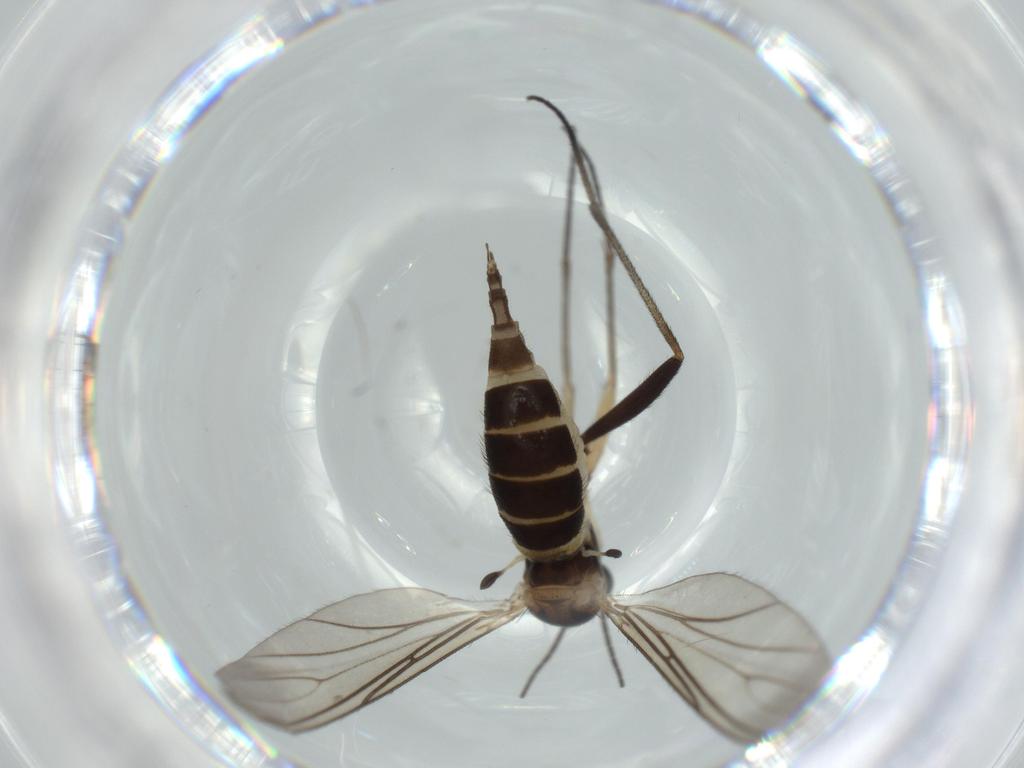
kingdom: Animalia
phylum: Arthropoda
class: Insecta
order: Diptera
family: Sciaridae
